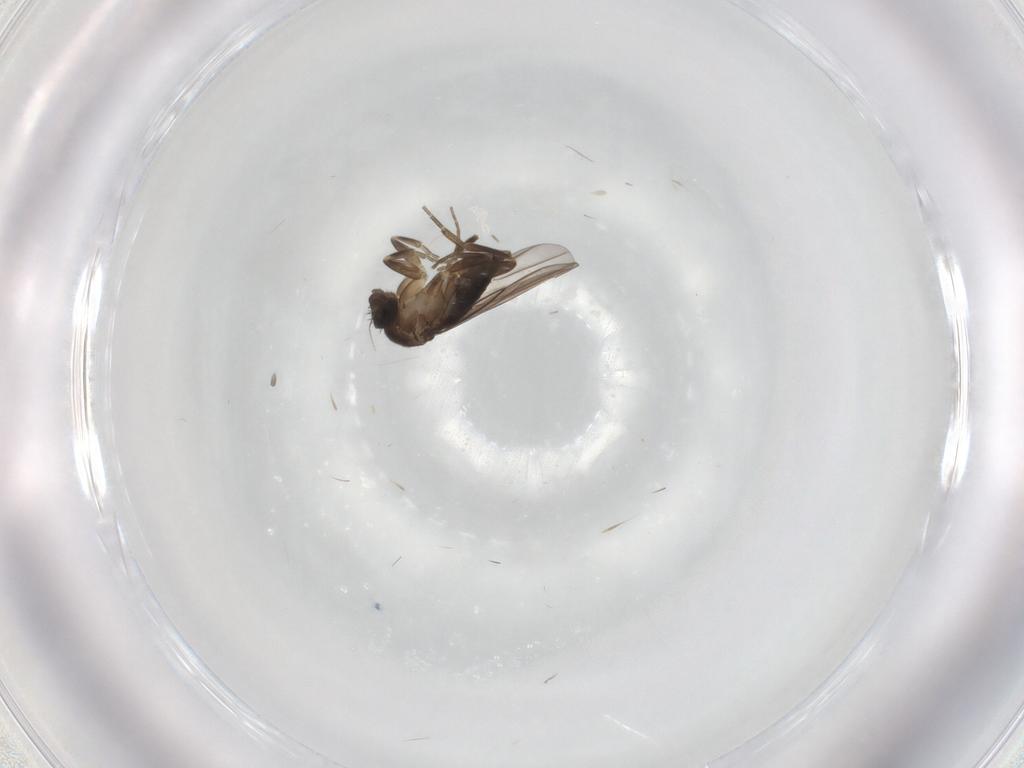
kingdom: Animalia
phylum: Arthropoda
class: Insecta
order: Diptera
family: Phoridae
